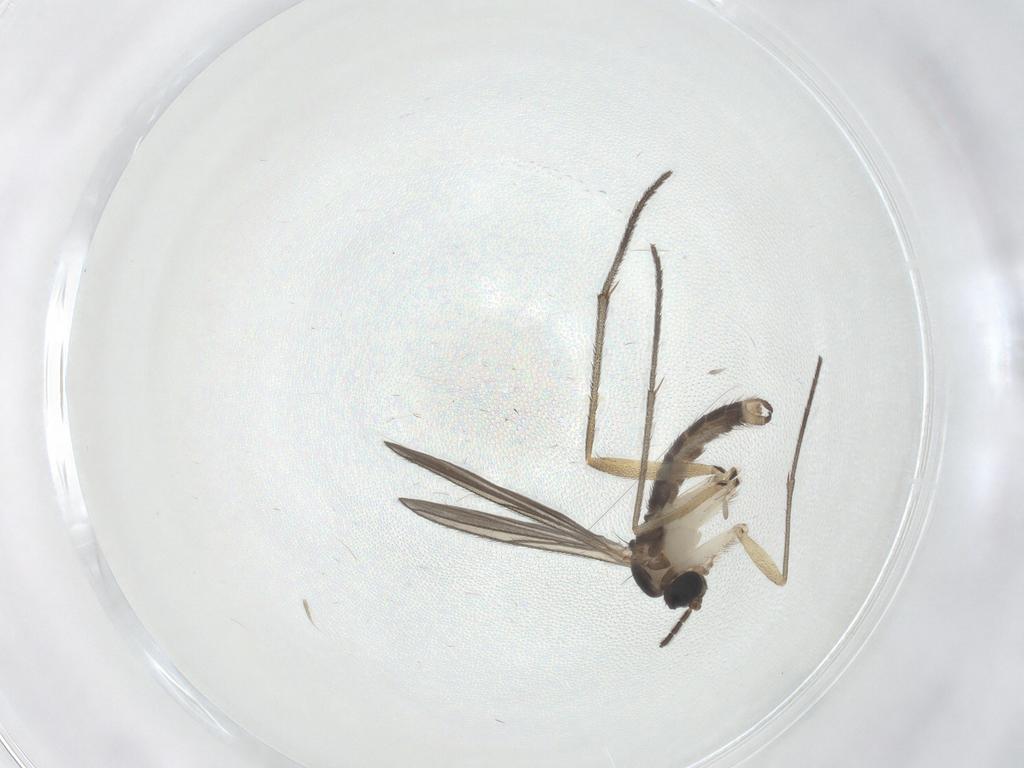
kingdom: Animalia
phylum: Arthropoda
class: Insecta
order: Diptera
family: Sciaridae
